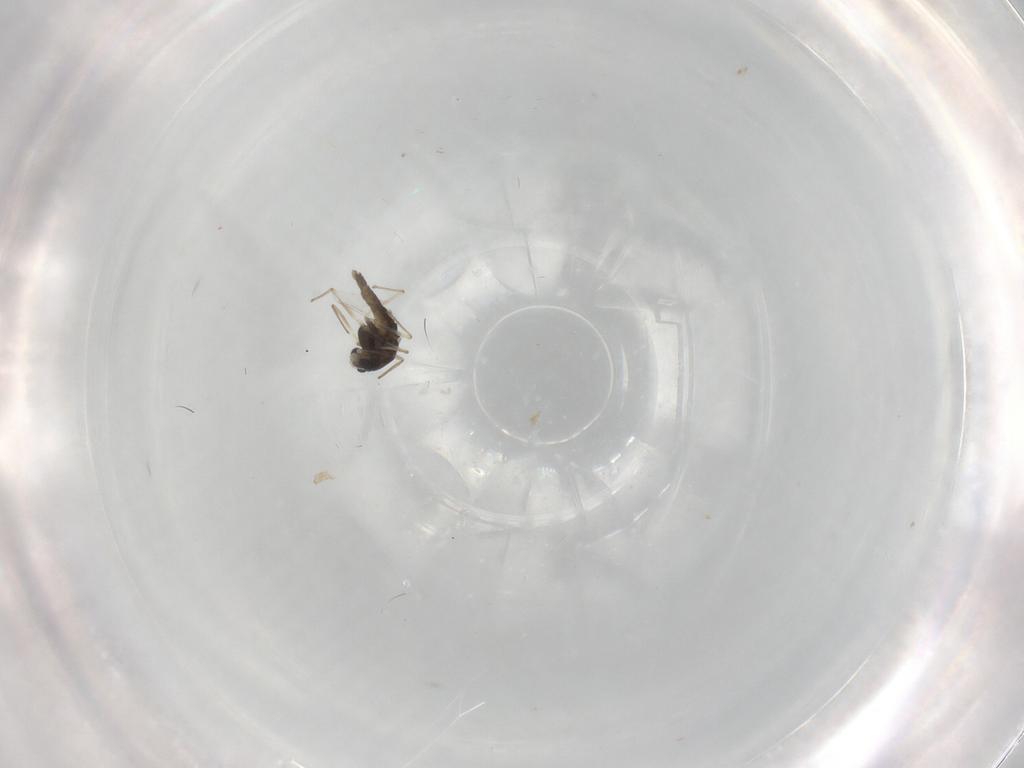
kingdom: Animalia
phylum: Arthropoda
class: Insecta
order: Diptera
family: Chironomidae
